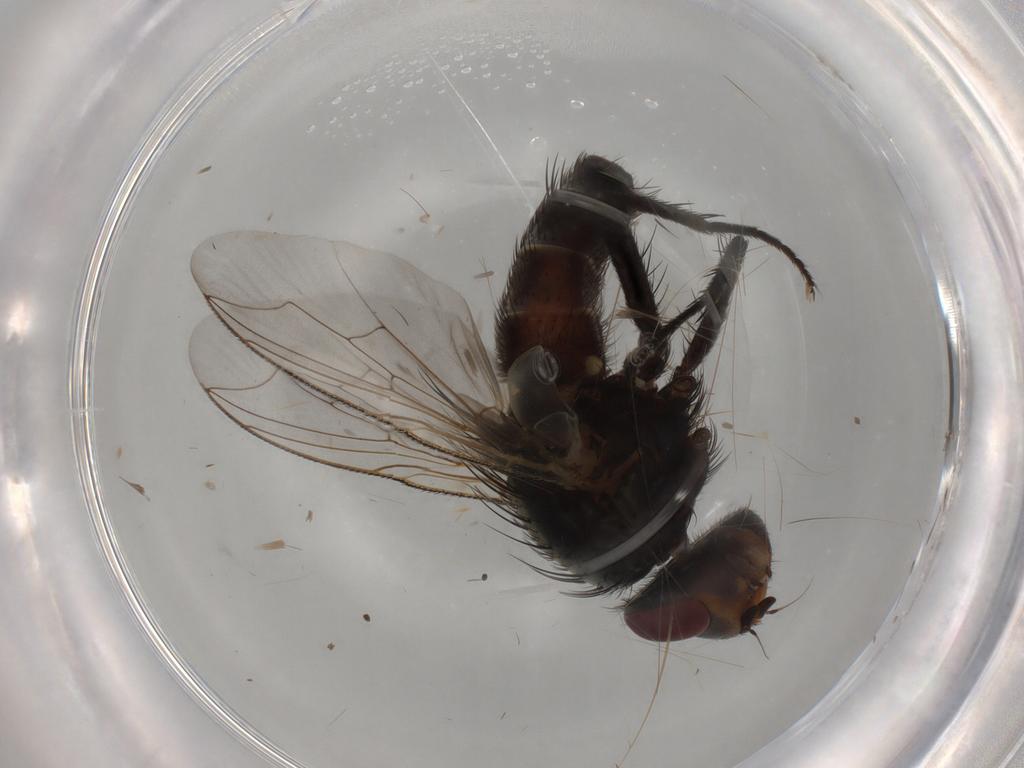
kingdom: Animalia
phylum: Arthropoda
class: Insecta
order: Diptera
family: Sarcophagidae
